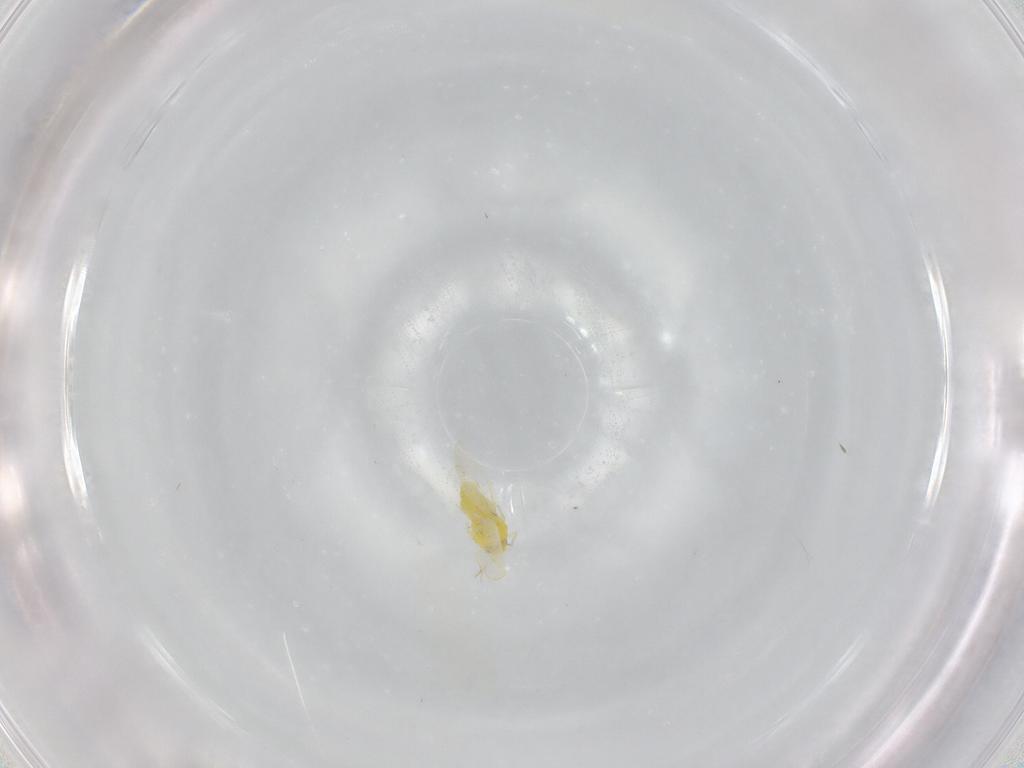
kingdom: Animalia
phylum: Arthropoda
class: Insecta
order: Hemiptera
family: Aleyrodidae
